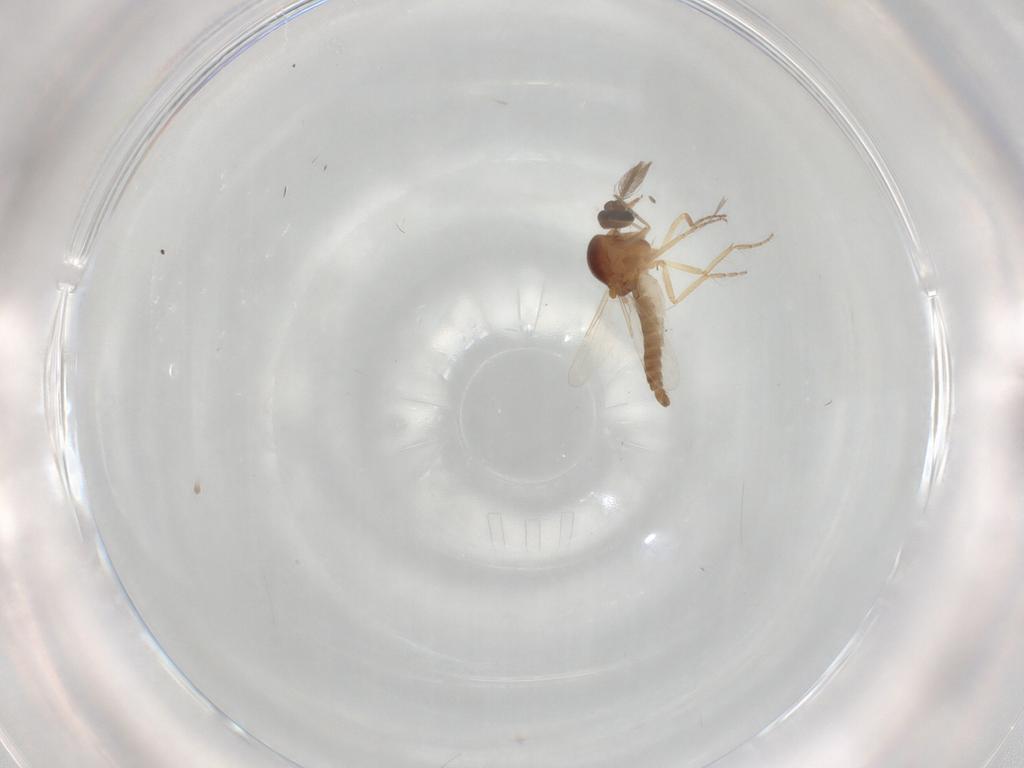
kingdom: Animalia
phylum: Arthropoda
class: Insecta
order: Diptera
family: Ceratopogonidae
